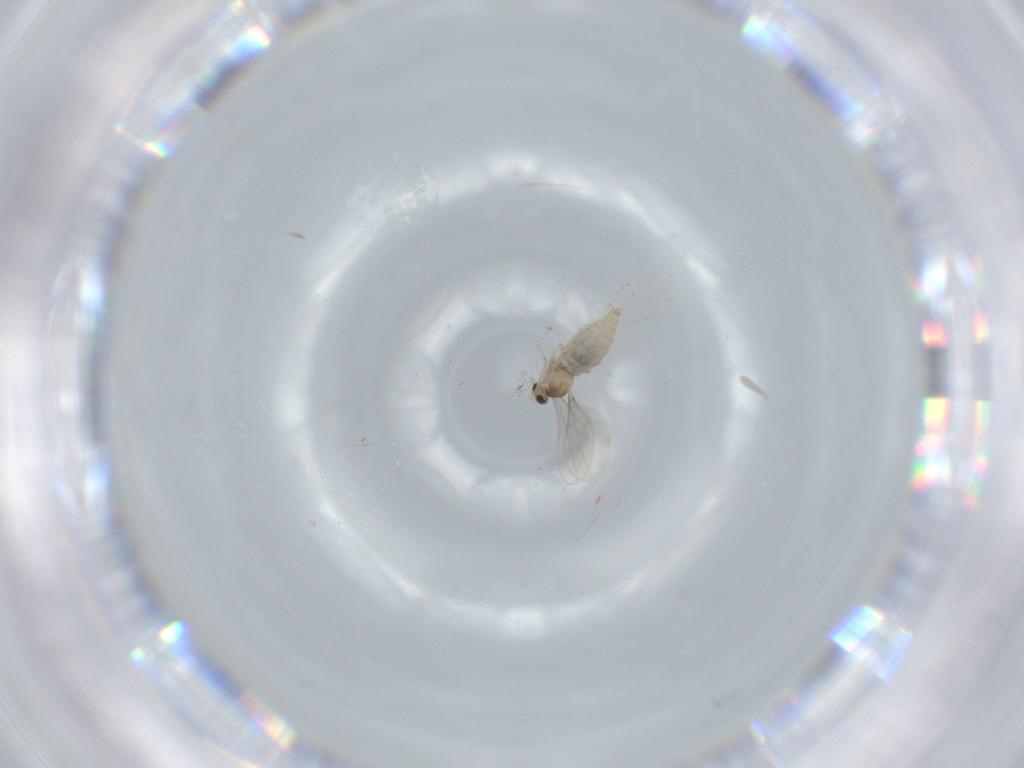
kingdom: Animalia
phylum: Arthropoda
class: Insecta
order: Diptera
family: Cecidomyiidae
